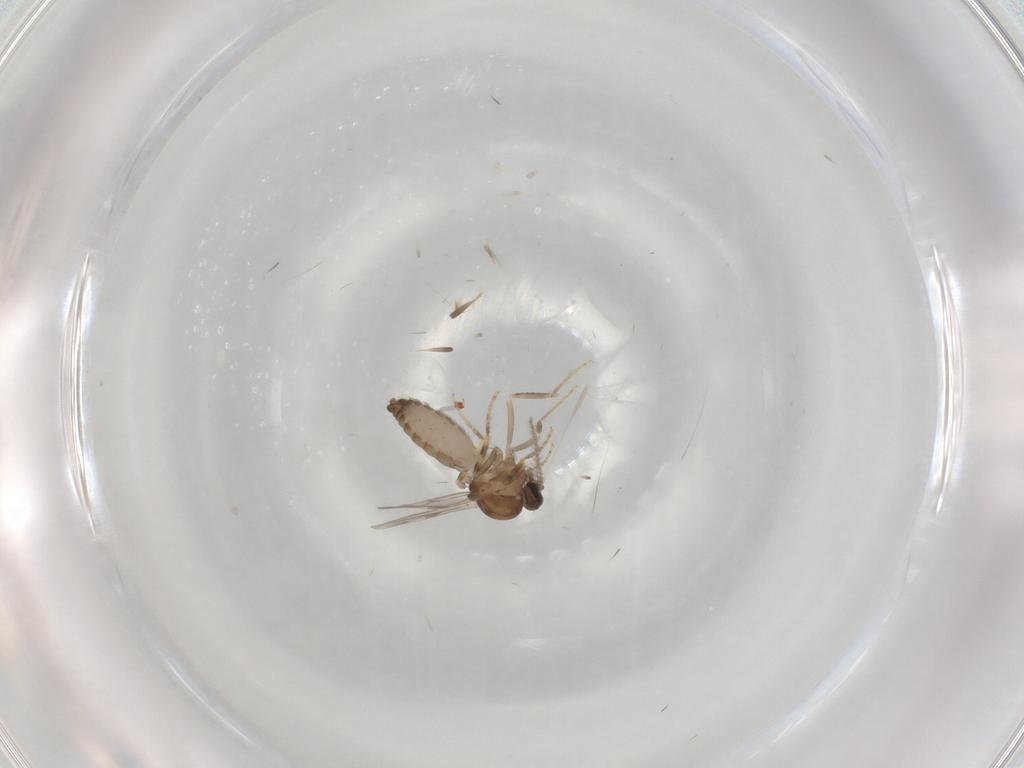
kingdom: Animalia
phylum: Arthropoda
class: Insecta
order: Diptera
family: Ceratopogonidae
